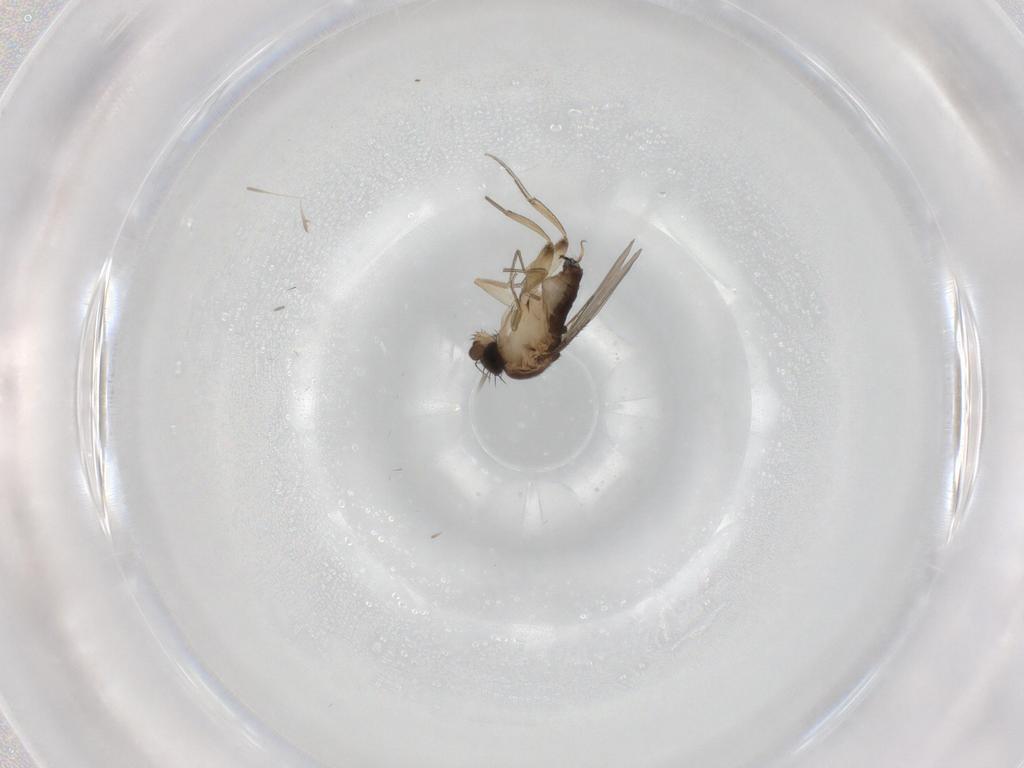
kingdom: Animalia
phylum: Arthropoda
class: Insecta
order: Diptera
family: Phoridae
